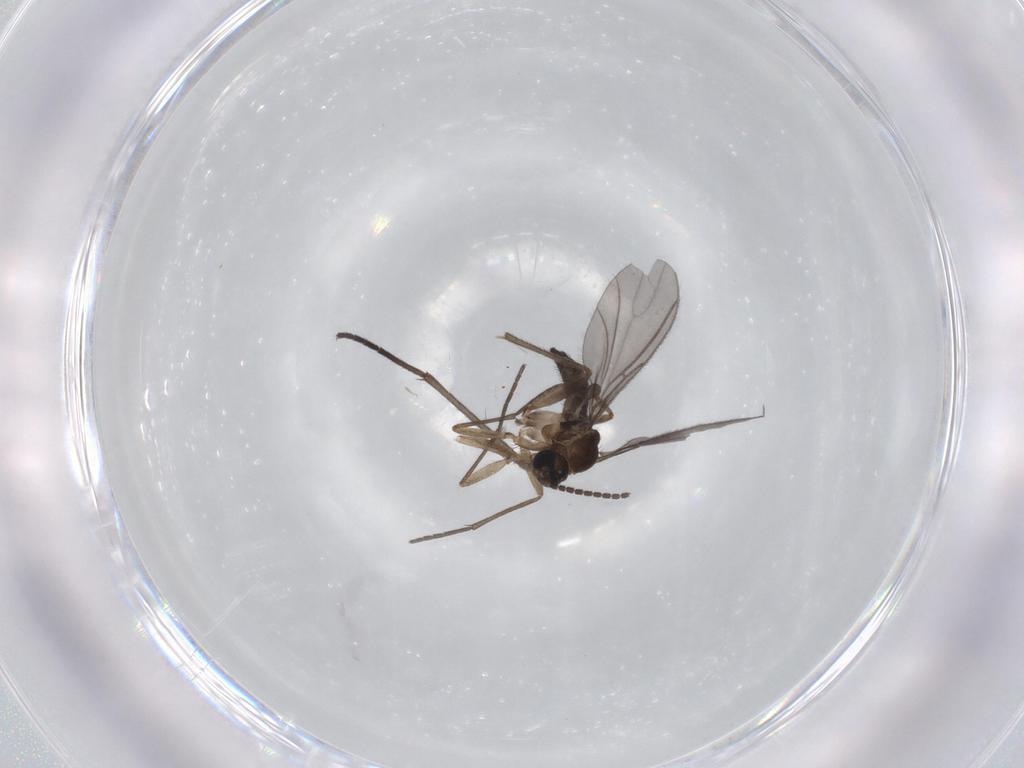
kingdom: Animalia
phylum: Arthropoda
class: Insecta
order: Diptera
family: Sciaridae
